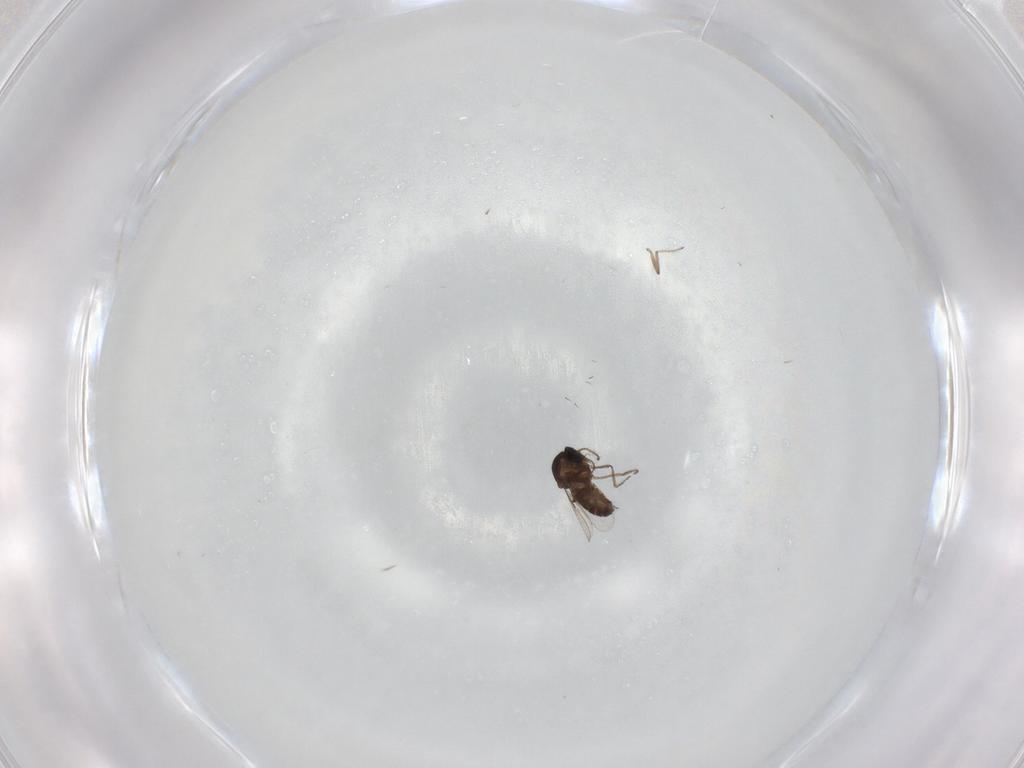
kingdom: Animalia
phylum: Arthropoda
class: Insecta
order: Diptera
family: Ceratopogonidae
